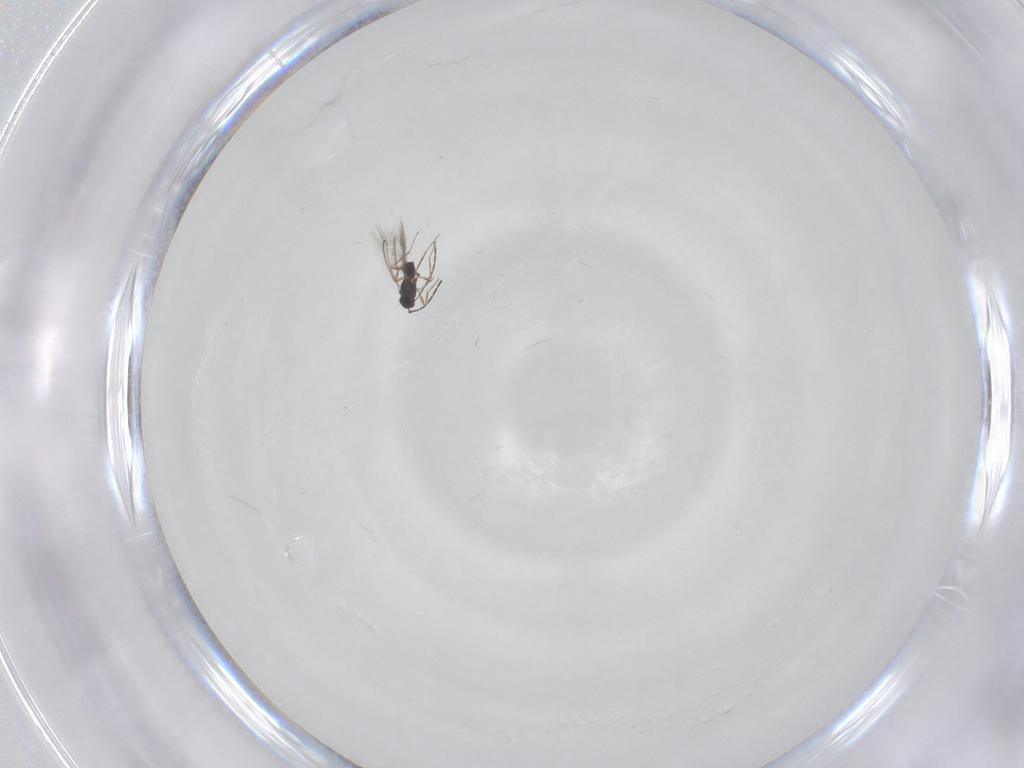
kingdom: Animalia
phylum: Arthropoda
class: Insecta
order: Hymenoptera
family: Mymaridae
